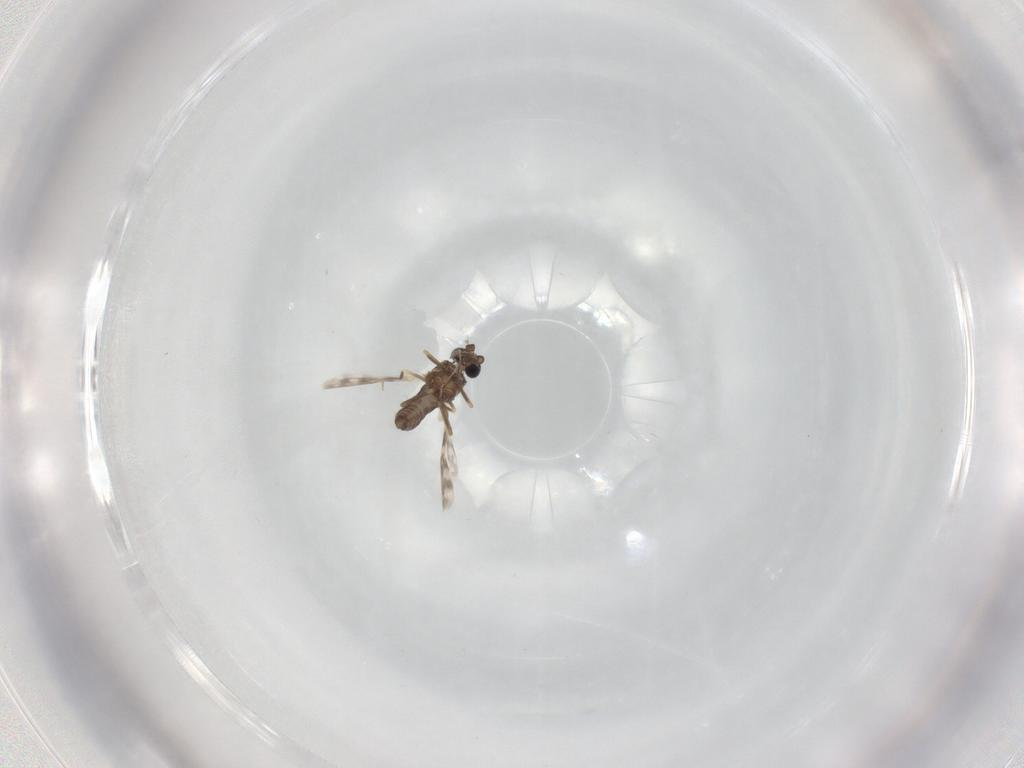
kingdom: Animalia
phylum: Arthropoda
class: Insecta
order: Diptera
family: Ceratopogonidae
